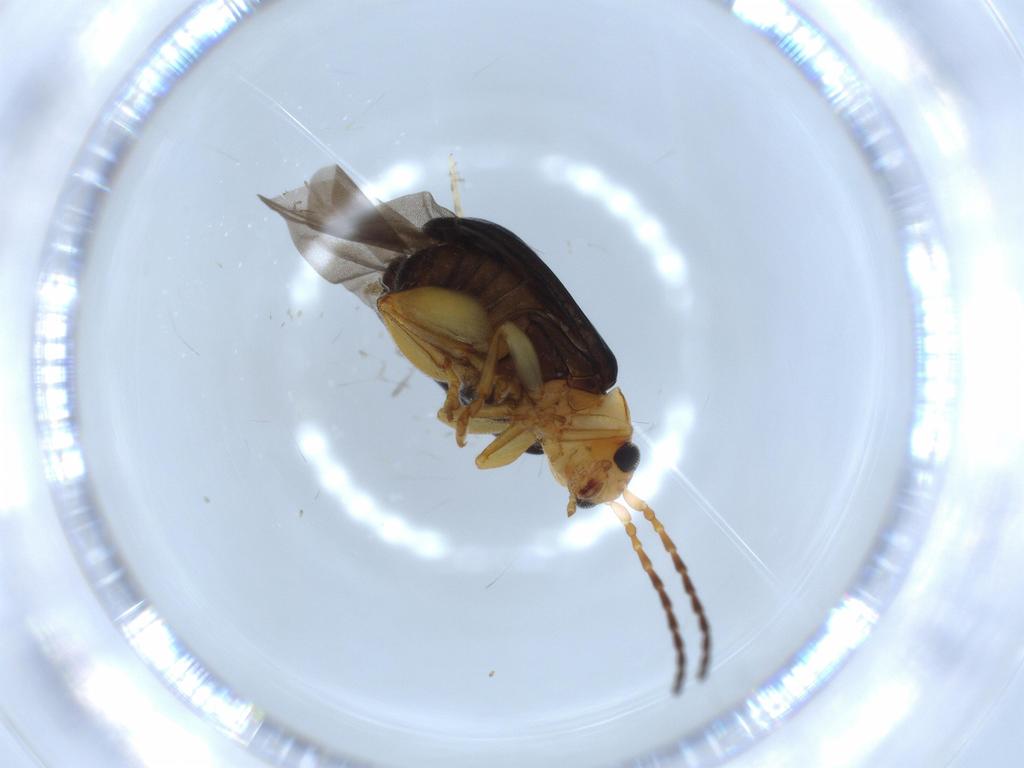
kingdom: Animalia
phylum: Arthropoda
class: Insecta
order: Coleoptera
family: Chrysomelidae
